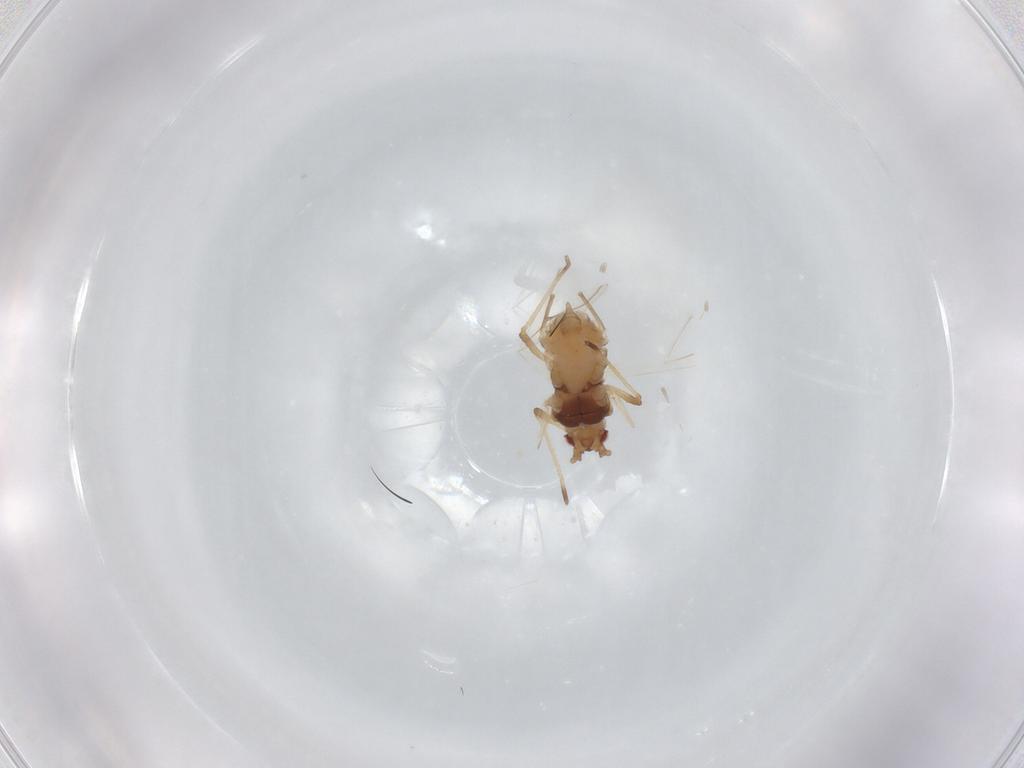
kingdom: Animalia
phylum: Arthropoda
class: Insecta
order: Hemiptera
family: Aphididae
